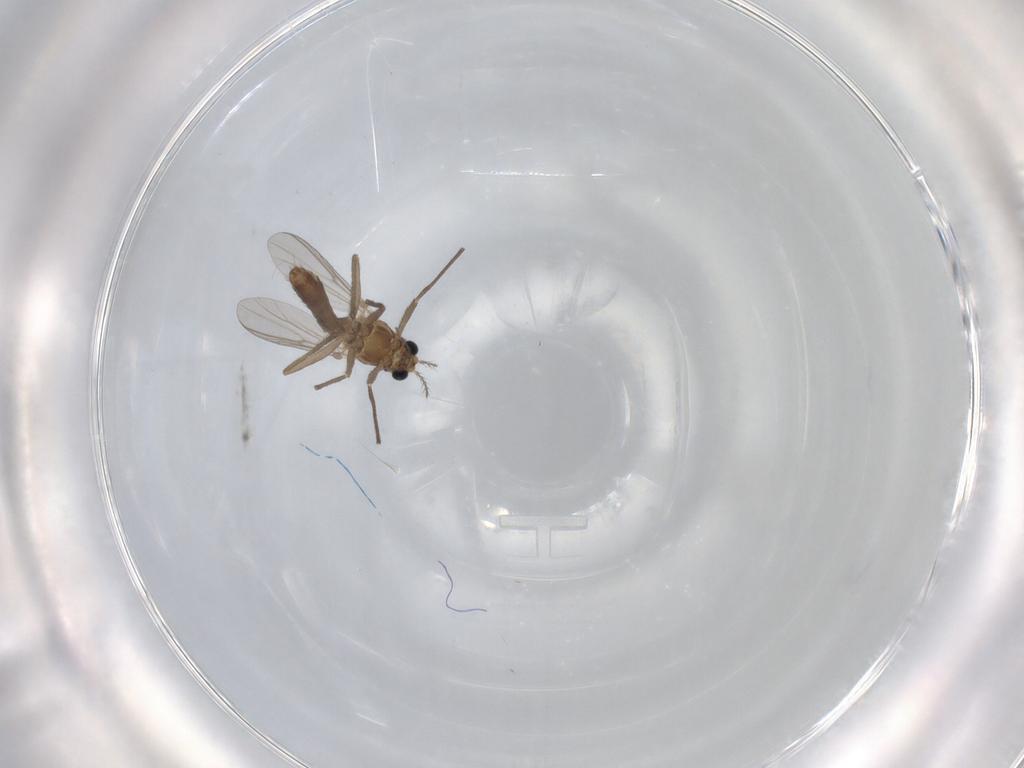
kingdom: Animalia
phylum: Arthropoda
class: Insecta
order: Diptera
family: Chironomidae
